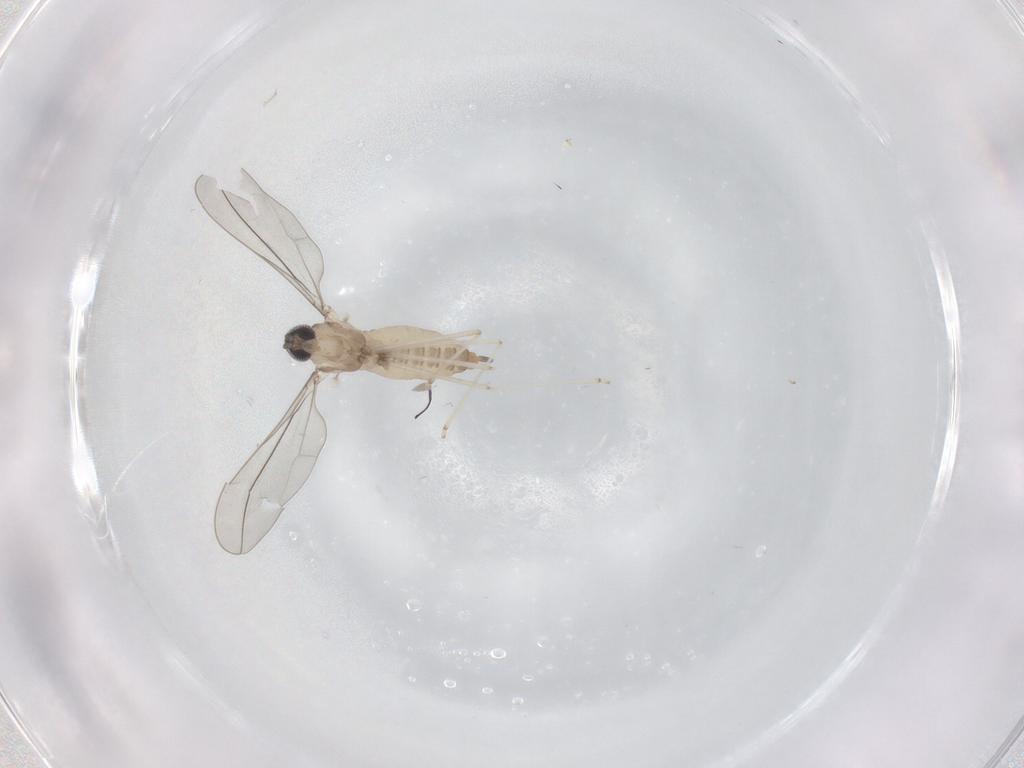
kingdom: Animalia
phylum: Arthropoda
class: Insecta
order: Diptera
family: Cecidomyiidae
